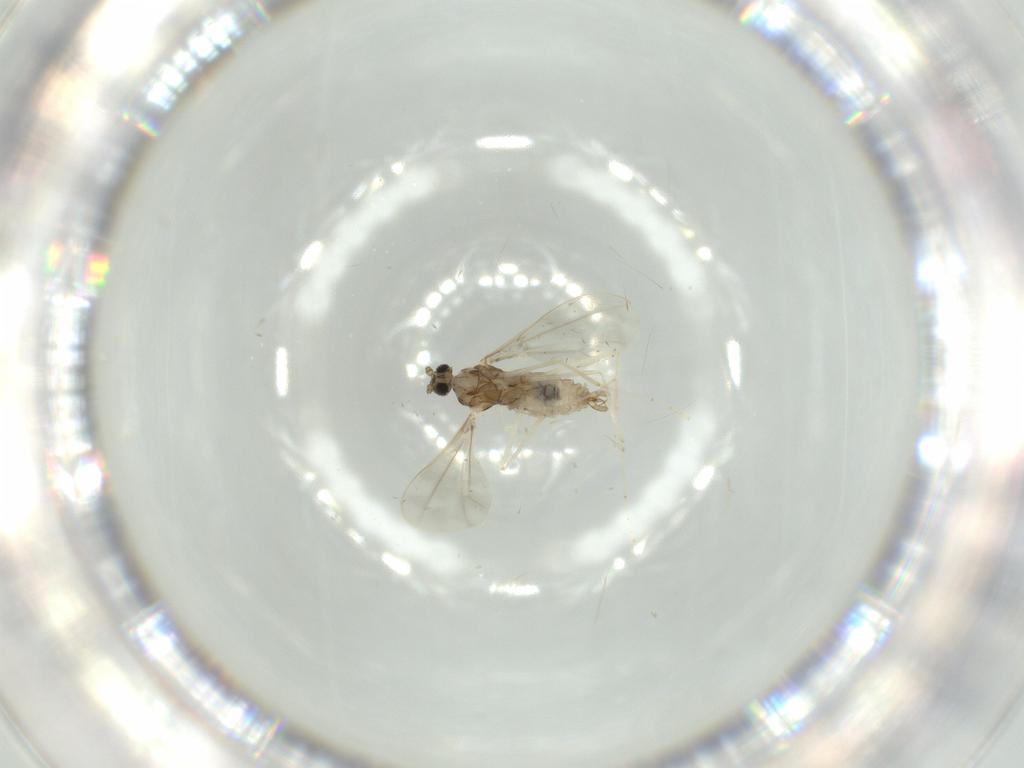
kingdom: Animalia
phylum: Arthropoda
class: Insecta
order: Diptera
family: Cecidomyiidae
